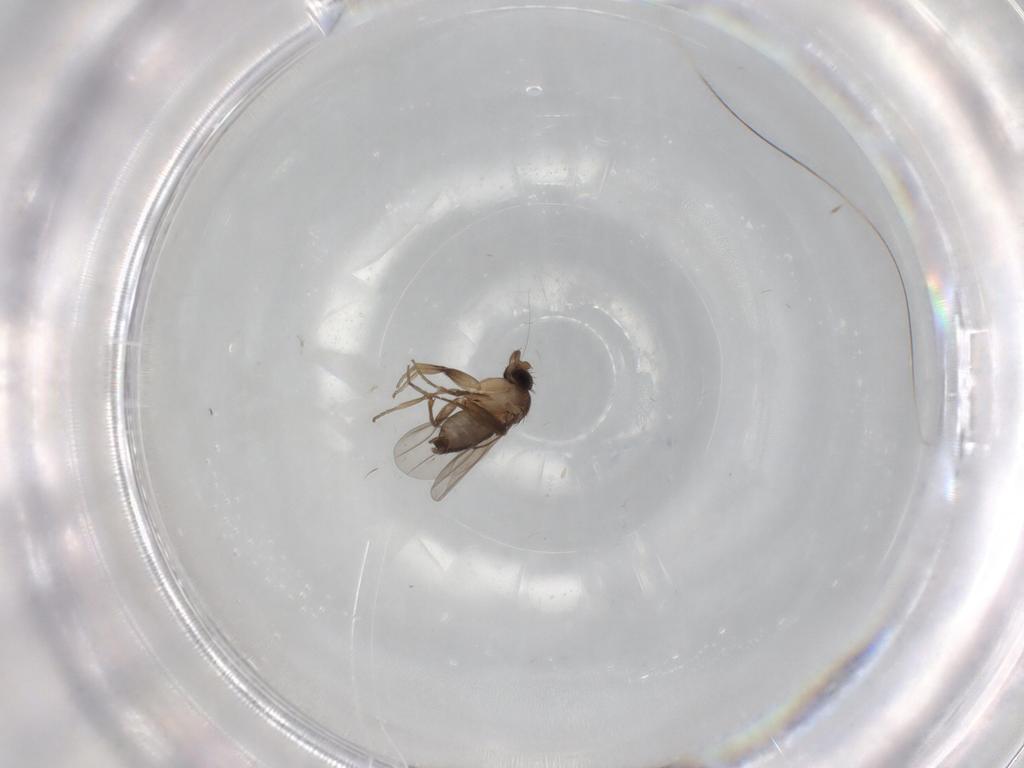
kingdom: Animalia
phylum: Arthropoda
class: Insecta
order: Diptera
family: Phoridae
